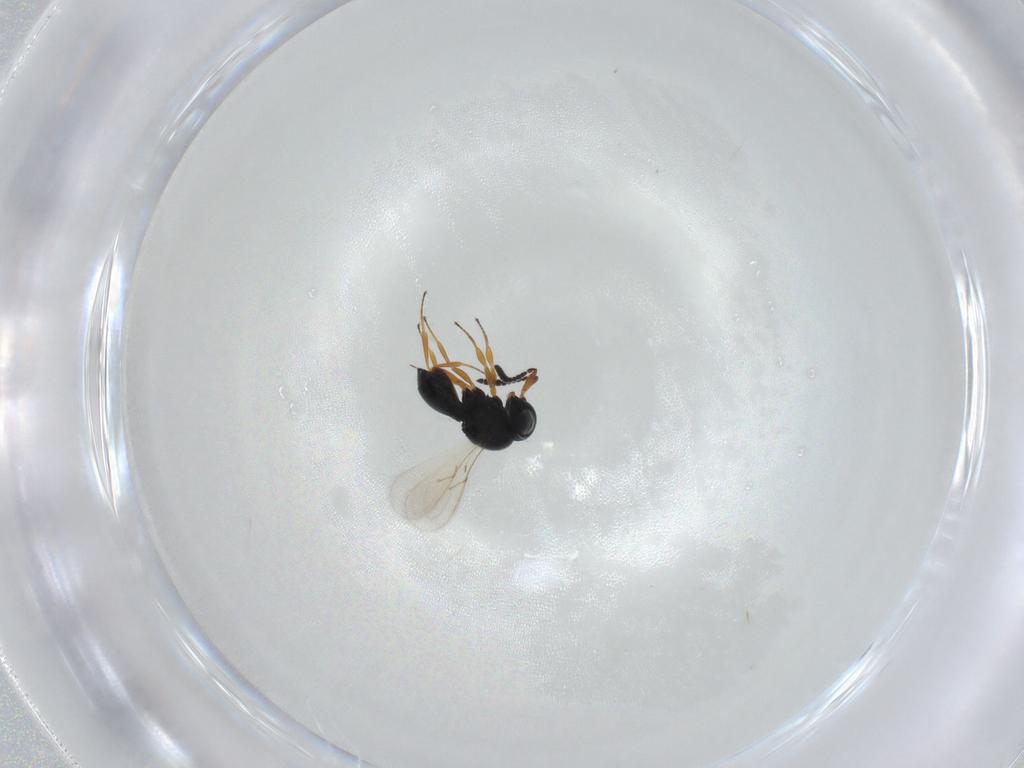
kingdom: Animalia
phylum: Arthropoda
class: Insecta
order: Hymenoptera
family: Scelionidae
